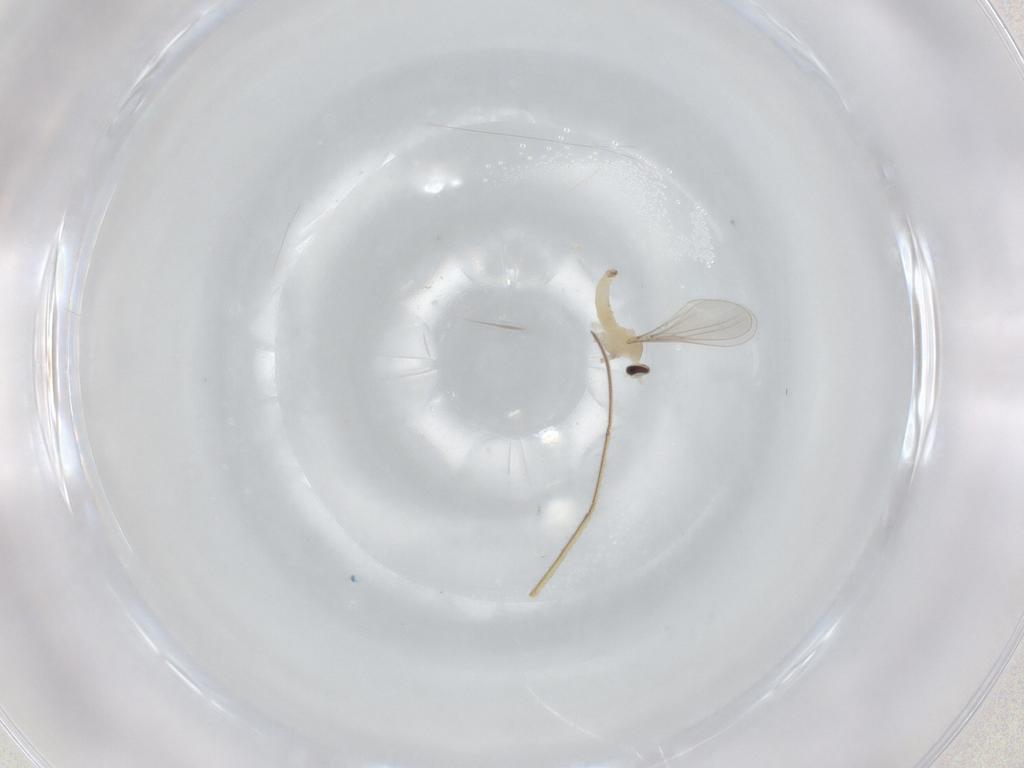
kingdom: Animalia
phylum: Arthropoda
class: Insecta
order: Diptera
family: Cecidomyiidae
